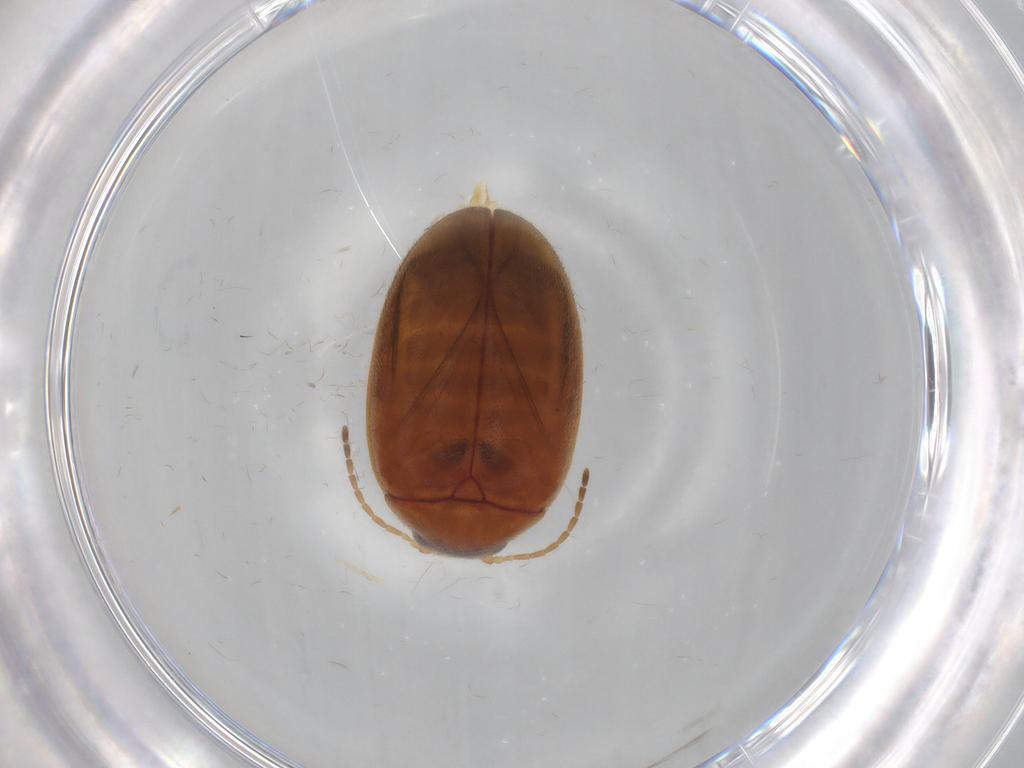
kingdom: Animalia
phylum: Arthropoda
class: Insecta
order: Coleoptera
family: Scirtidae
